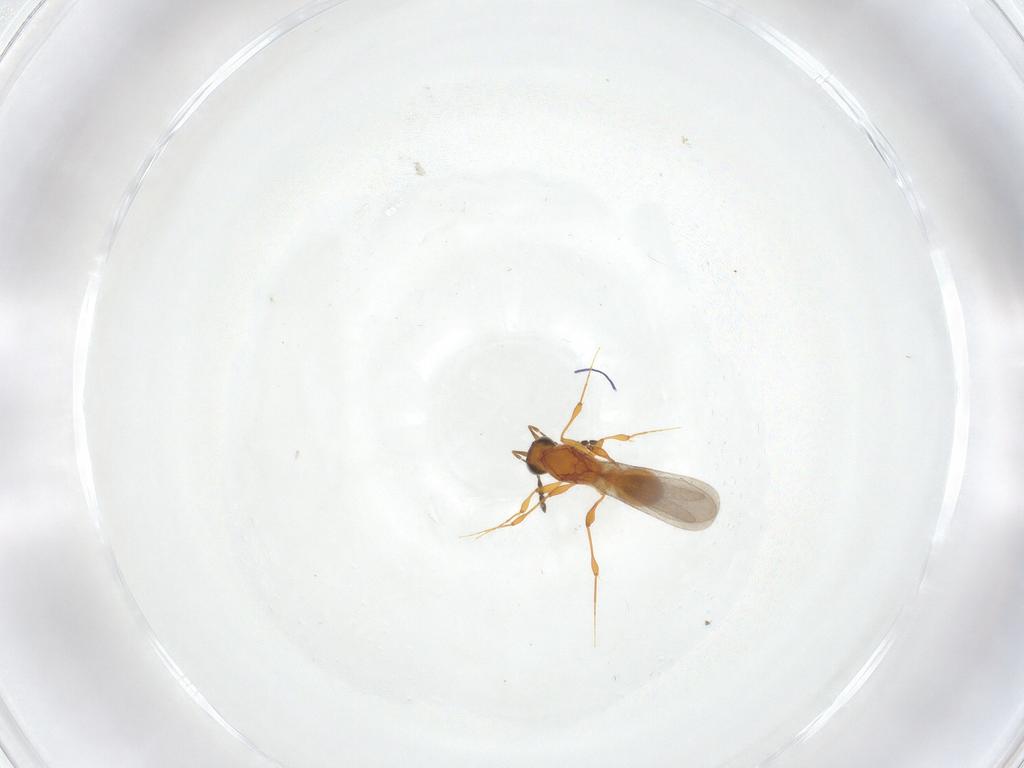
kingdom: Animalia
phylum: Arthropoda
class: Insecta
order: Hymenoptera
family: Platygastridae
